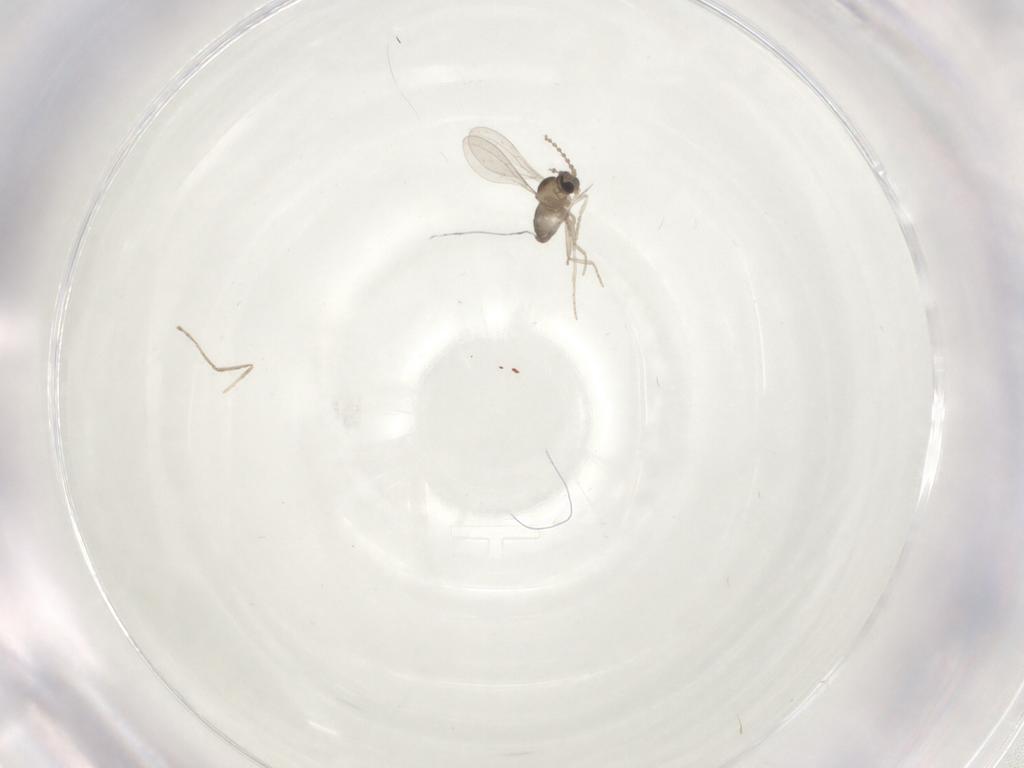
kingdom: Animalia
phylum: Arthropoda
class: Insecta
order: Diptera
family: Cecidomyiidae
